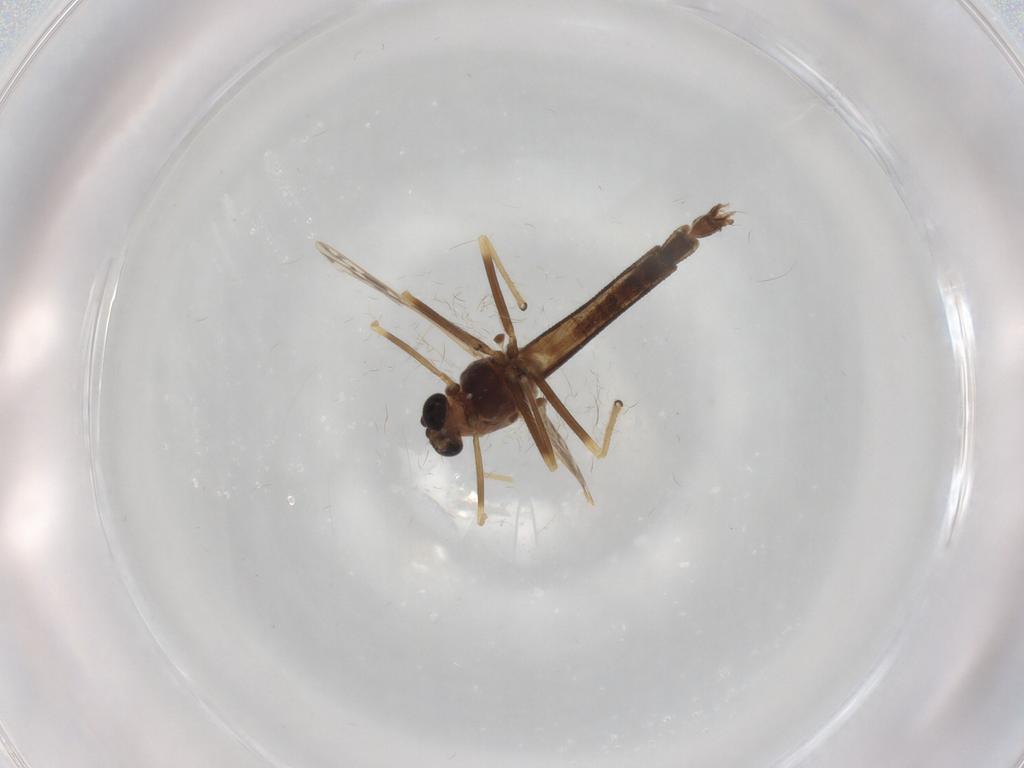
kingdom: Animalia
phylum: Arthropoda
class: Insecta
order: Diptera
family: Chironomidae
